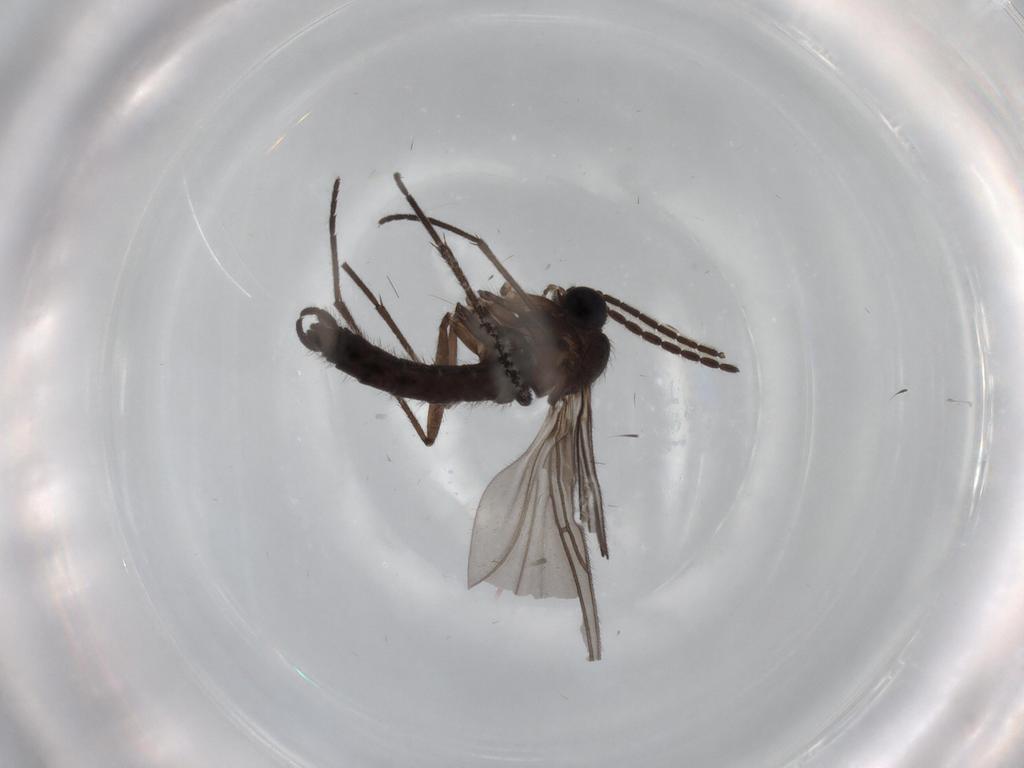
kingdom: Animalia
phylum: Arthropoda
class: Insecta
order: Diptera
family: Sciaridae
